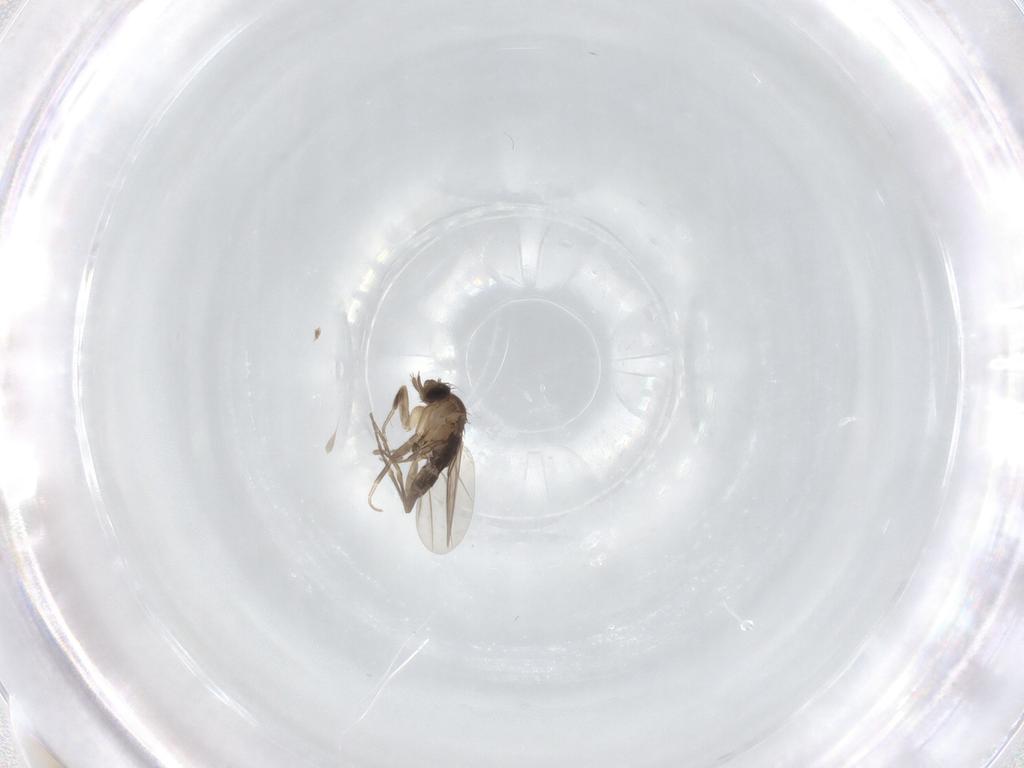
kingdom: Animalia
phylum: Arthropoda
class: Insecta
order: Diptera
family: Phoridae
